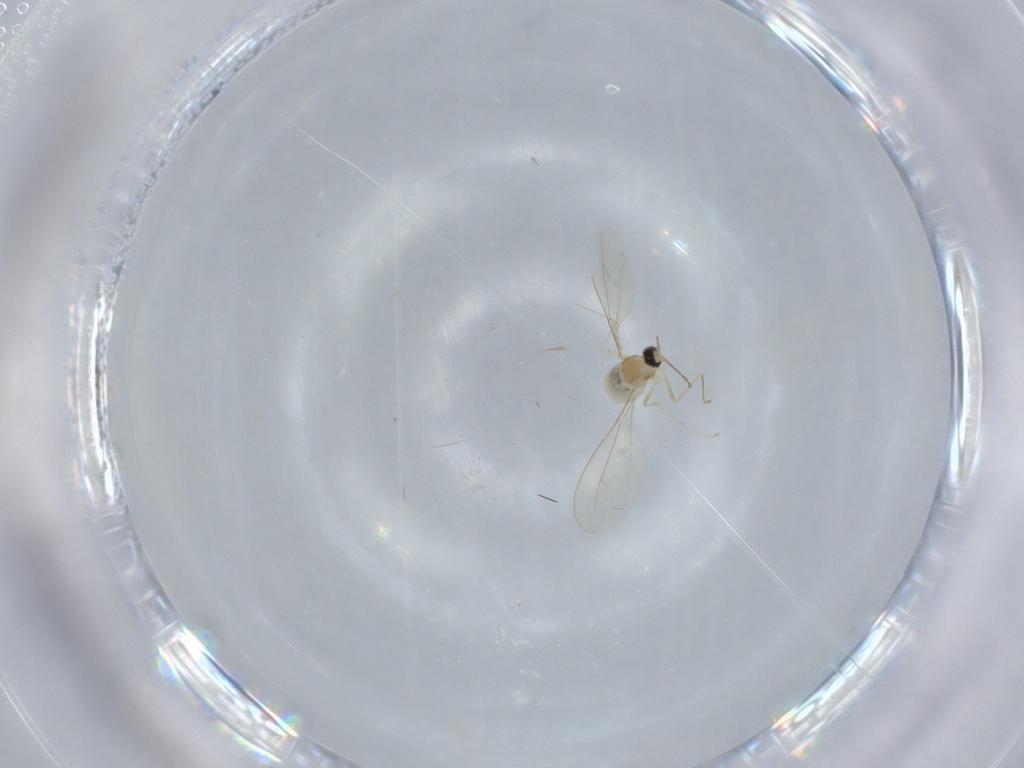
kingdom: Animalia
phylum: Arthropoda
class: Insecta
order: Diptera
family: Cecidomyiidae
